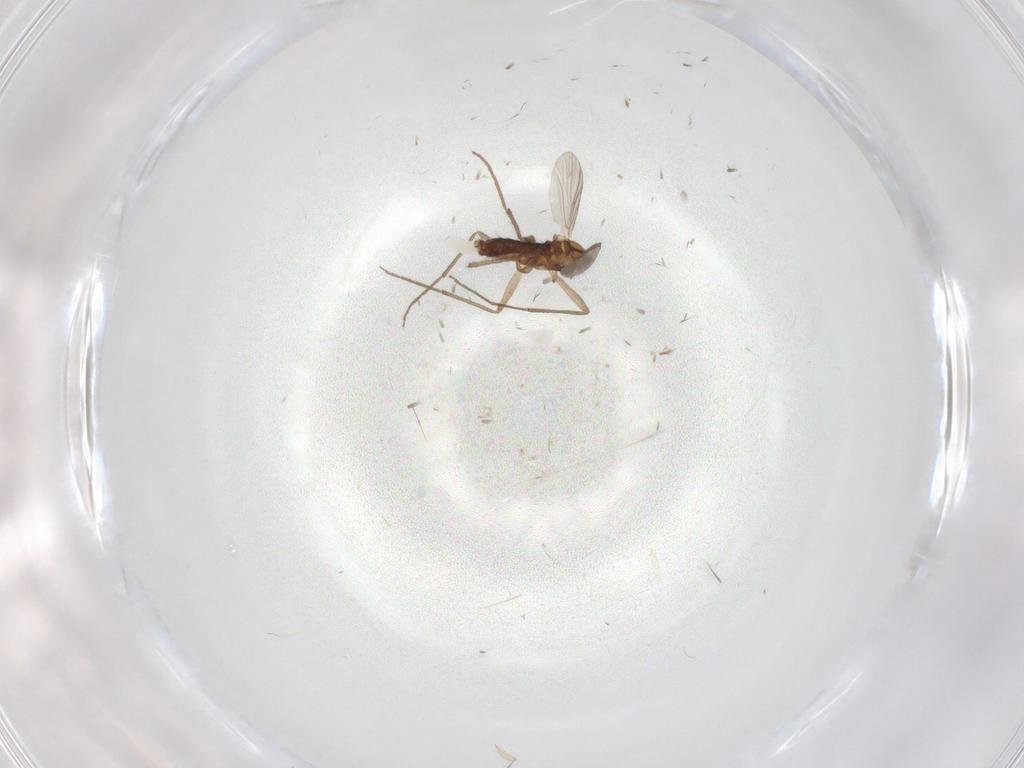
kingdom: Animalia
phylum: Arthropoda
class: Insecta
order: Diptera
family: Chironomidae
